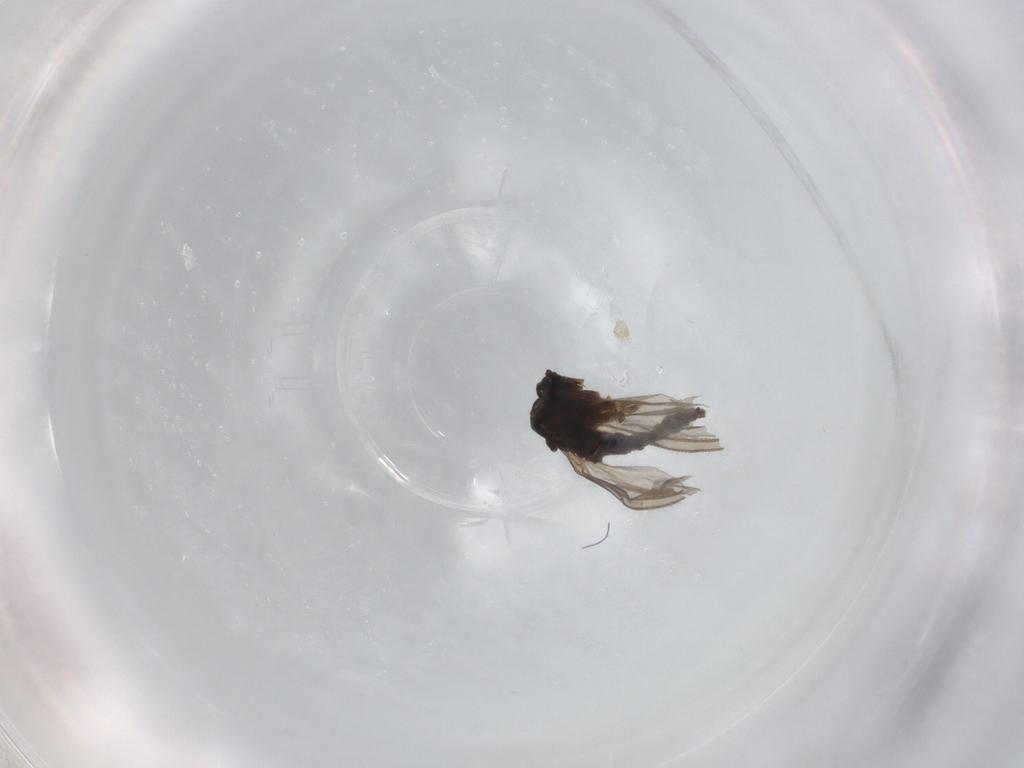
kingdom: Animalia
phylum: Arthropoda
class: Insecta
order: Diptera
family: Sciaridae
